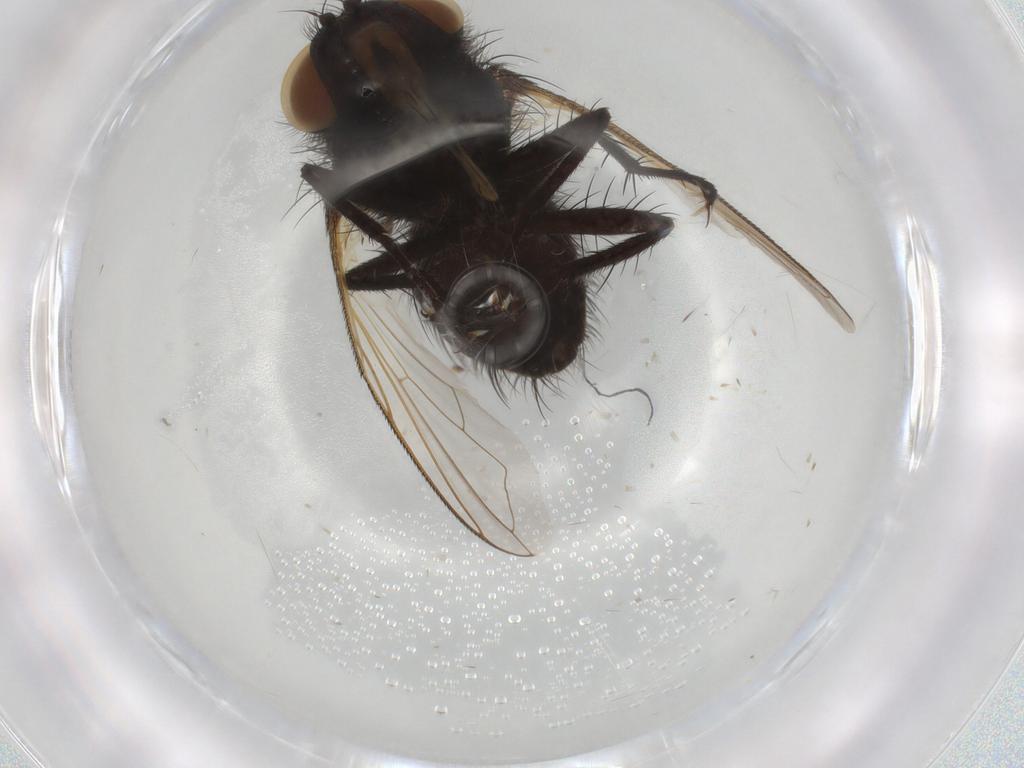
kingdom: Animalia
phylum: Arthropoda
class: Insecta
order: Diptera
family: Tachinidae
